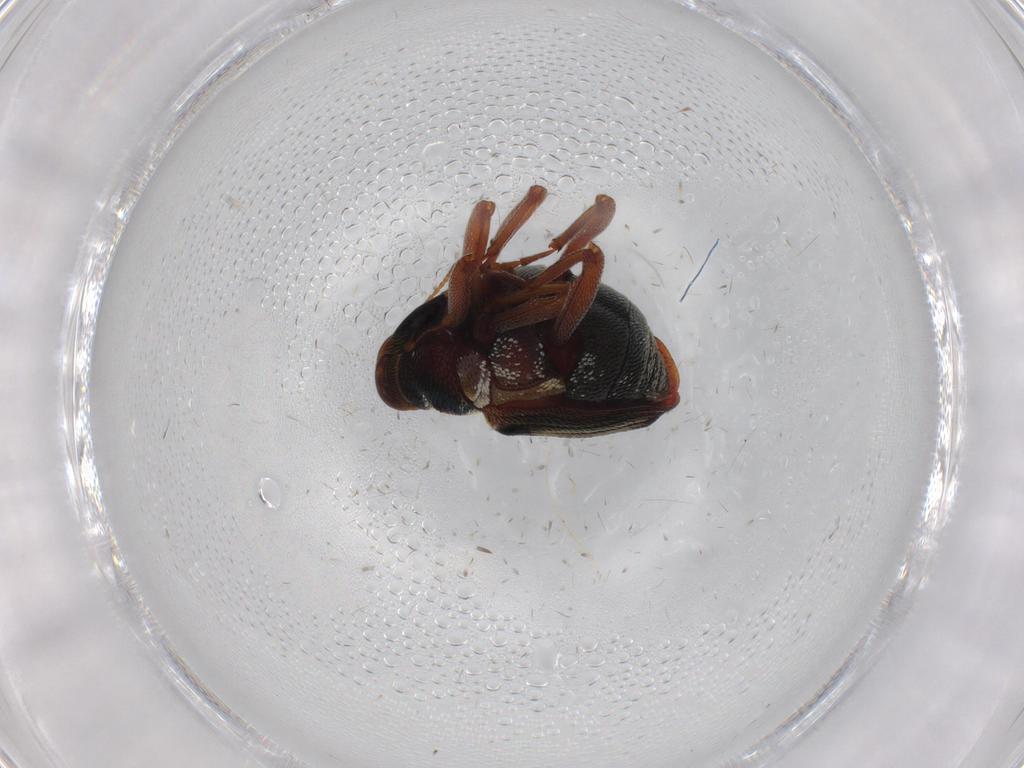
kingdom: Animalia
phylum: Arthropoda
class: Insecta
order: Coleoptera
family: Curculionidae
